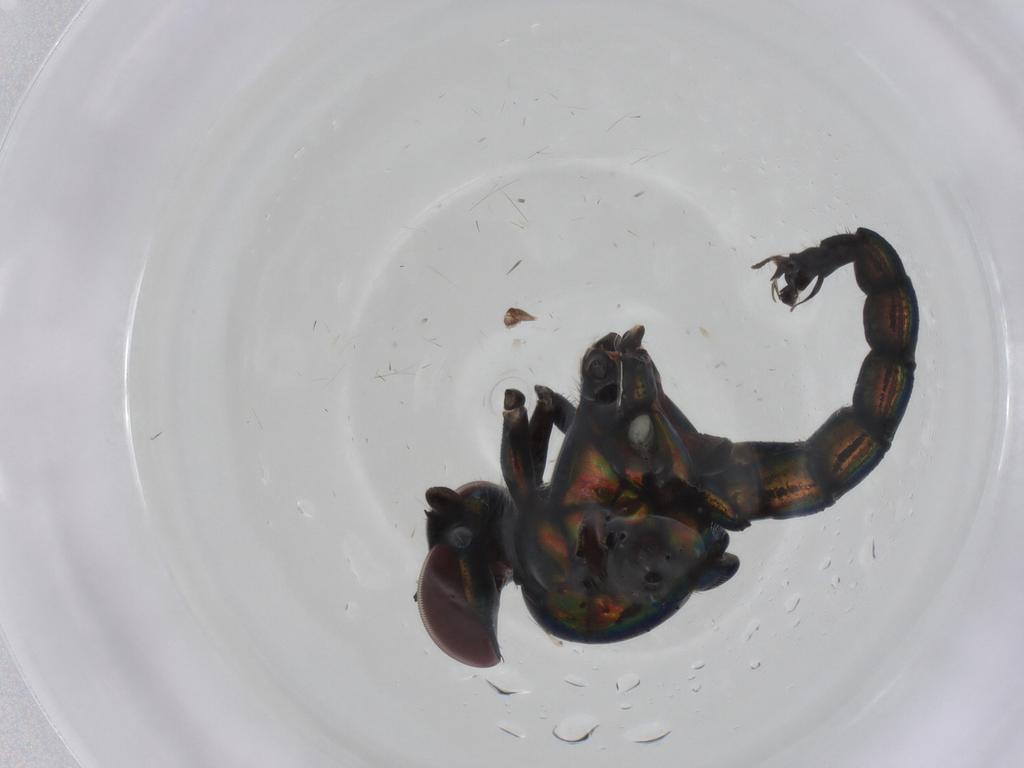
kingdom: Animalia
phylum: Arthropoda
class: Insecta
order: Diptera
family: Dolichopodidae
